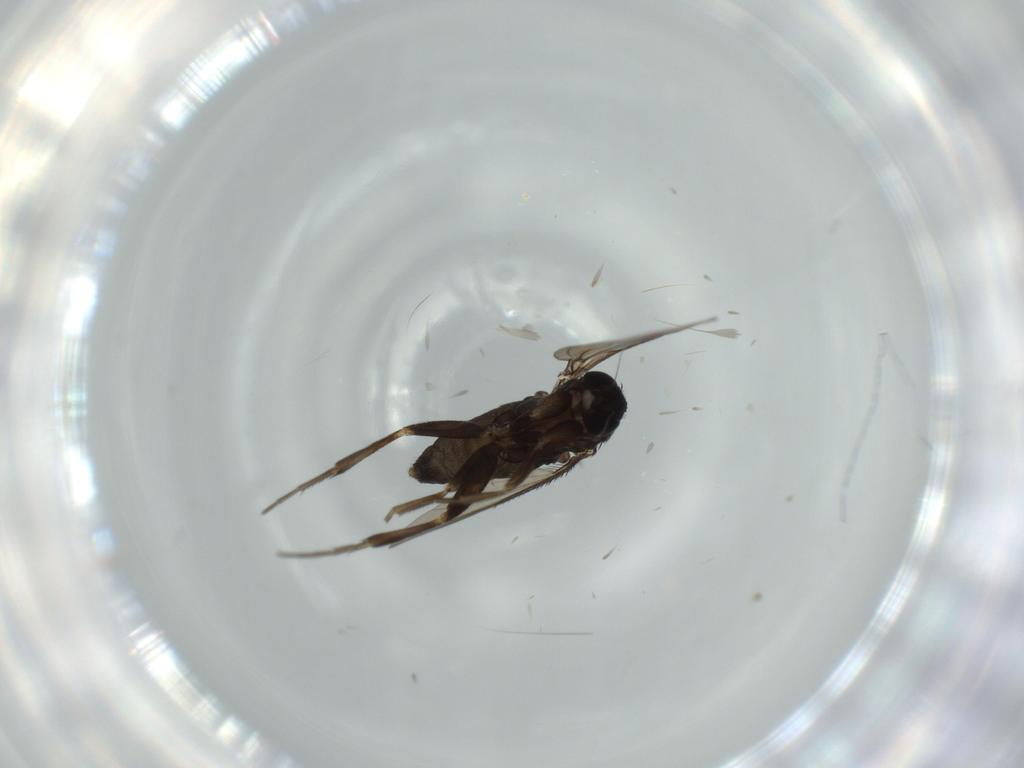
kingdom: Animalia
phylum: Arthropoda
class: Insecta
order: Diptera
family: Phoridae
